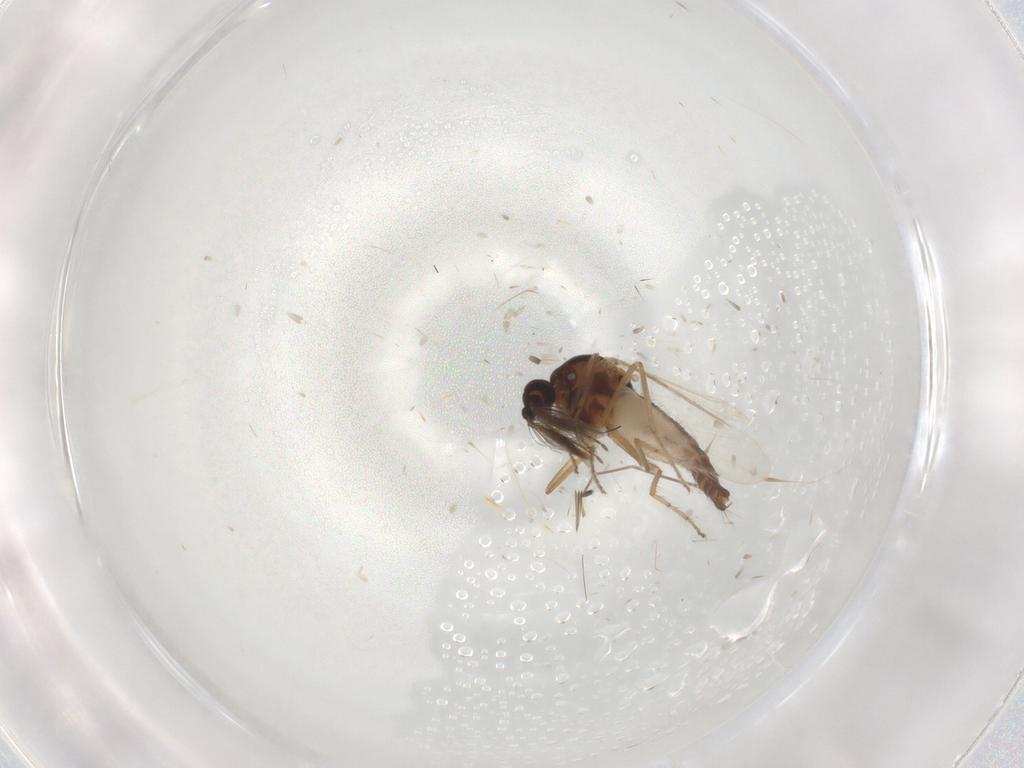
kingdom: Animalia
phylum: Arthropoda
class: Insecta
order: Diptera
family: Ceratopogonidae
